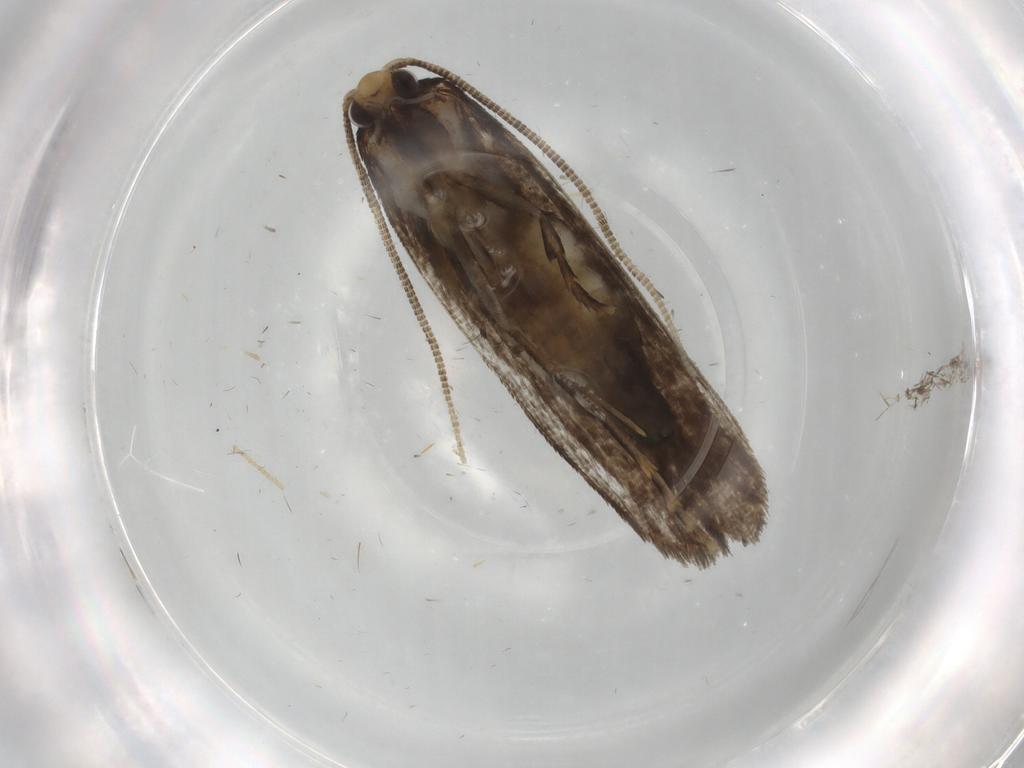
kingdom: Animalia
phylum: Arthropoda
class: Insecta
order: Lepidoptera
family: Tineidae
